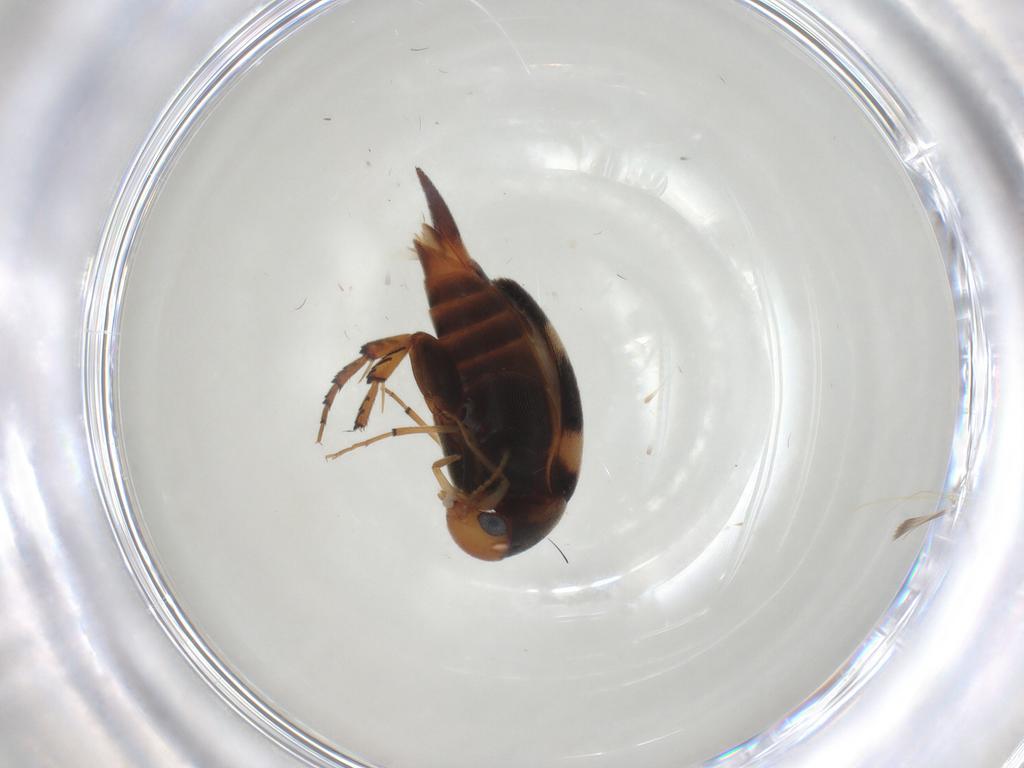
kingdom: Animalia
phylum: Arthropoda
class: Insecta
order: Coleoptera
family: Mordellidae
